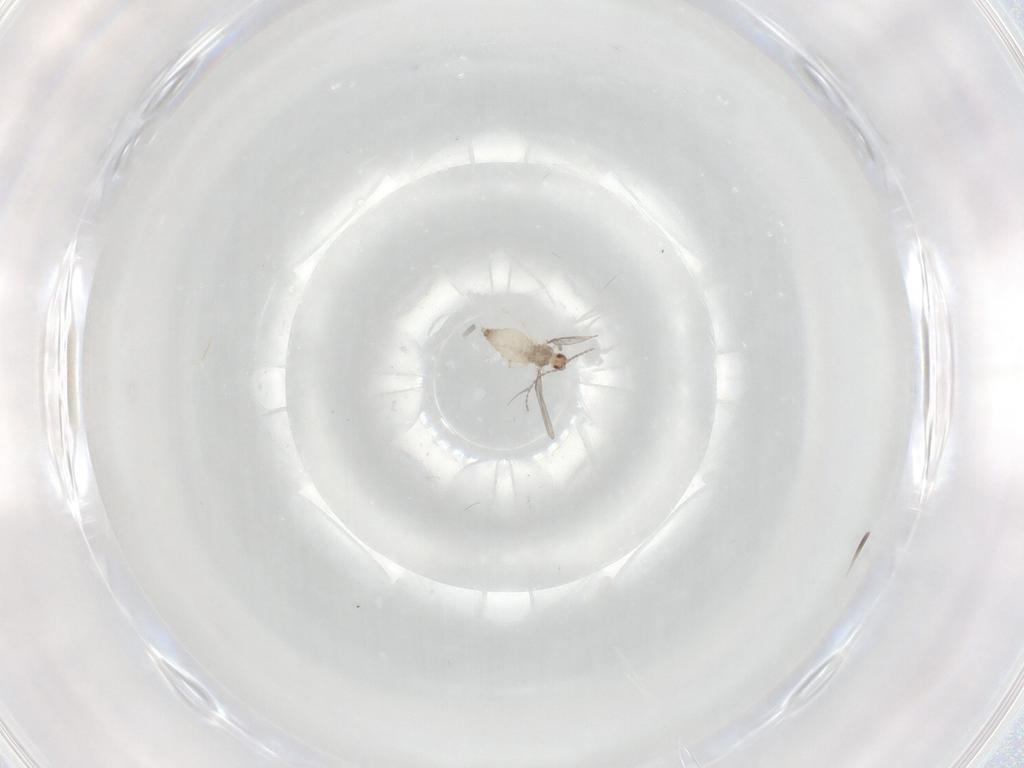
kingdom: Animalia
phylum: Arthropoda
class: Insecta
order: Diptera
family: Cecidomyiidae
